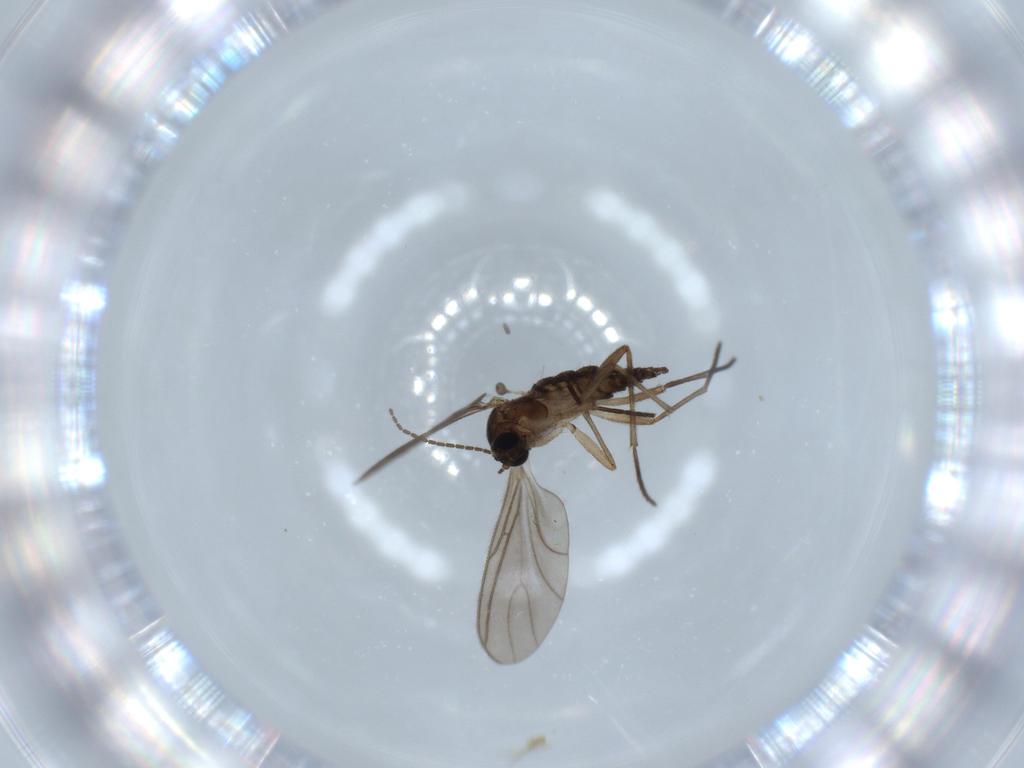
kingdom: Animalia
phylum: Arthropoda
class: Insecta
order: Diptera
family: Sciaridae
